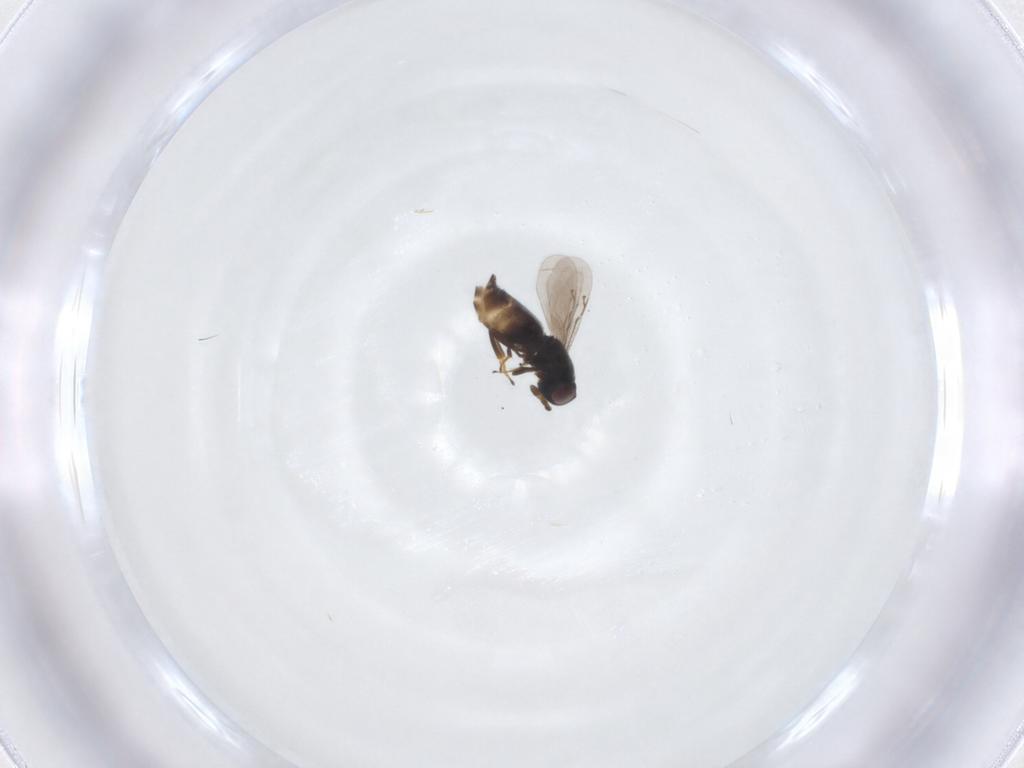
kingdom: Animalia
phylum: Arthropoda
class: Insecta
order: Hymenoptera
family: Eunotidae
